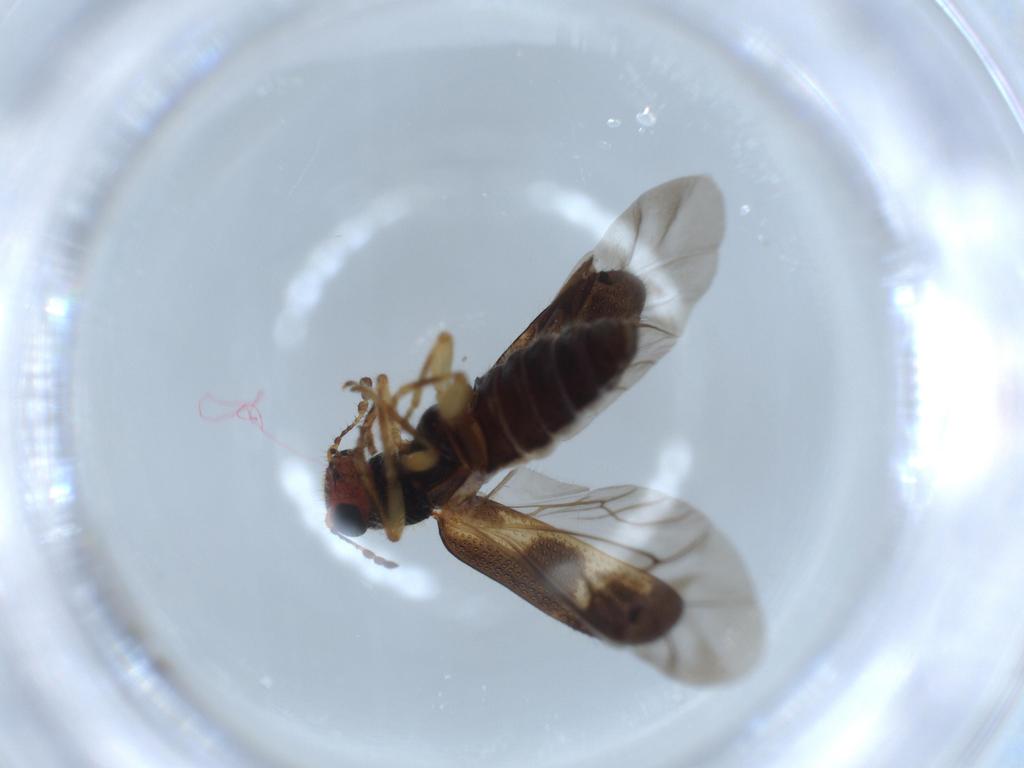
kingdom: Animalia
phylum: Arthropoda
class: Insecta
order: Coleoptera
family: Cleridae
